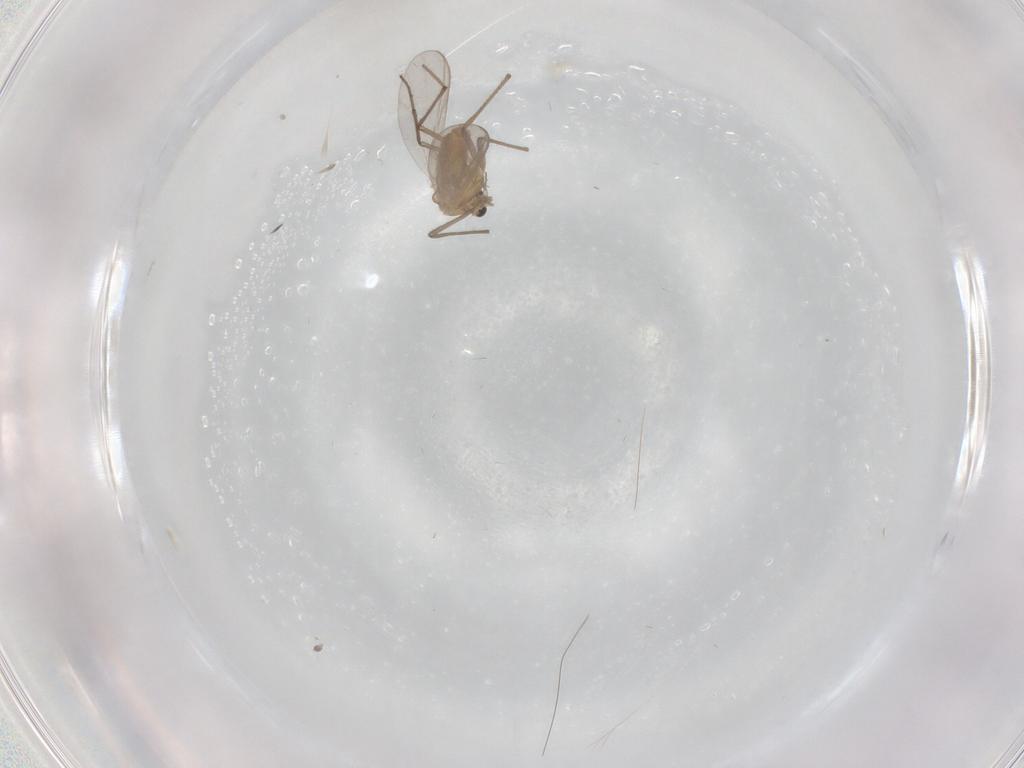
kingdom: Animalia
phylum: Arthropoda
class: Insecta
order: Diptera
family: Chironomidae
